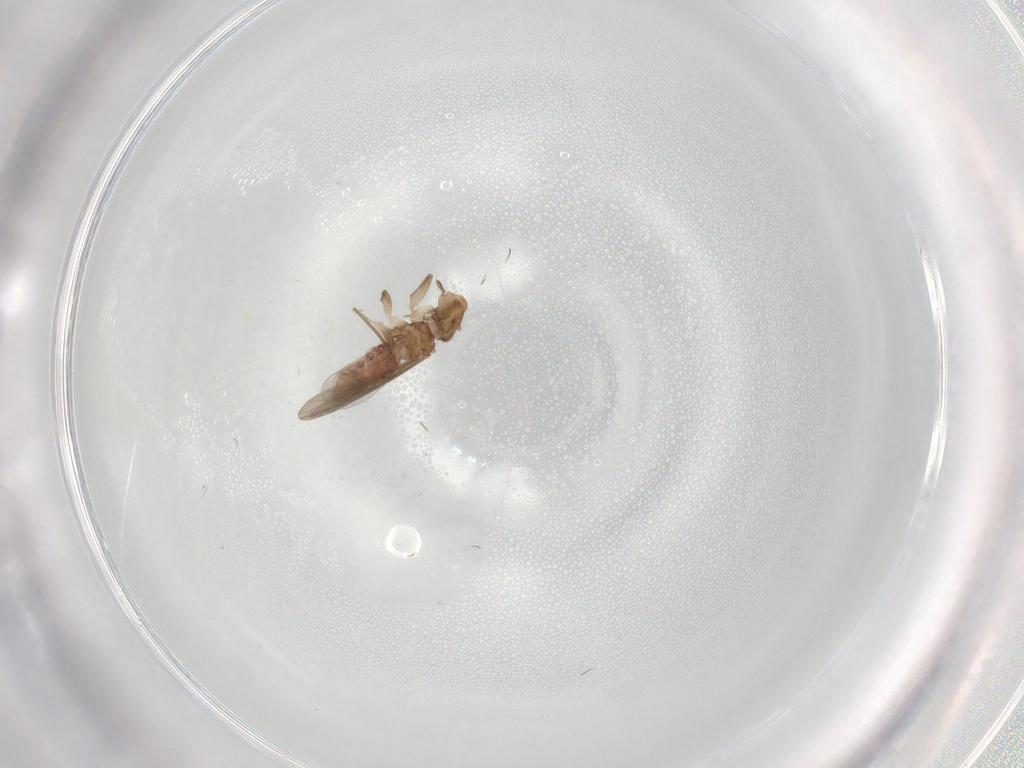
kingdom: Animalia
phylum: Arthropoda
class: Insecta
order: Psocodea
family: Lepidopsocidae
